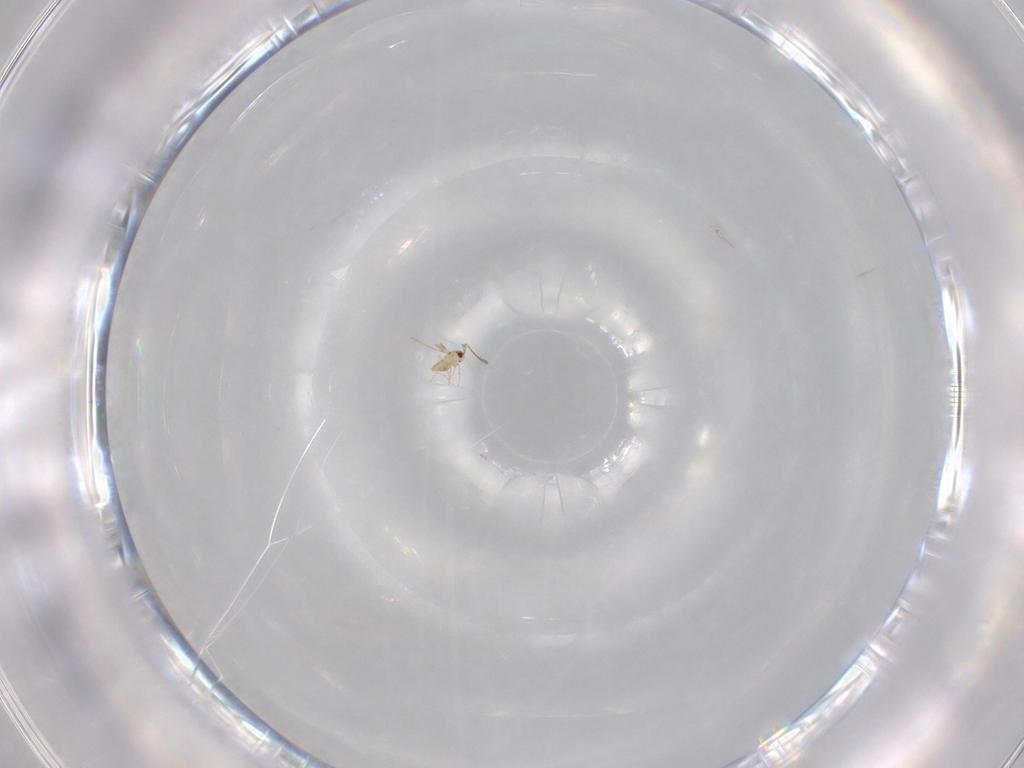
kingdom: Animalia
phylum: Arthropoda
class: Insecta
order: Hymenoptera
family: Mymaridae
